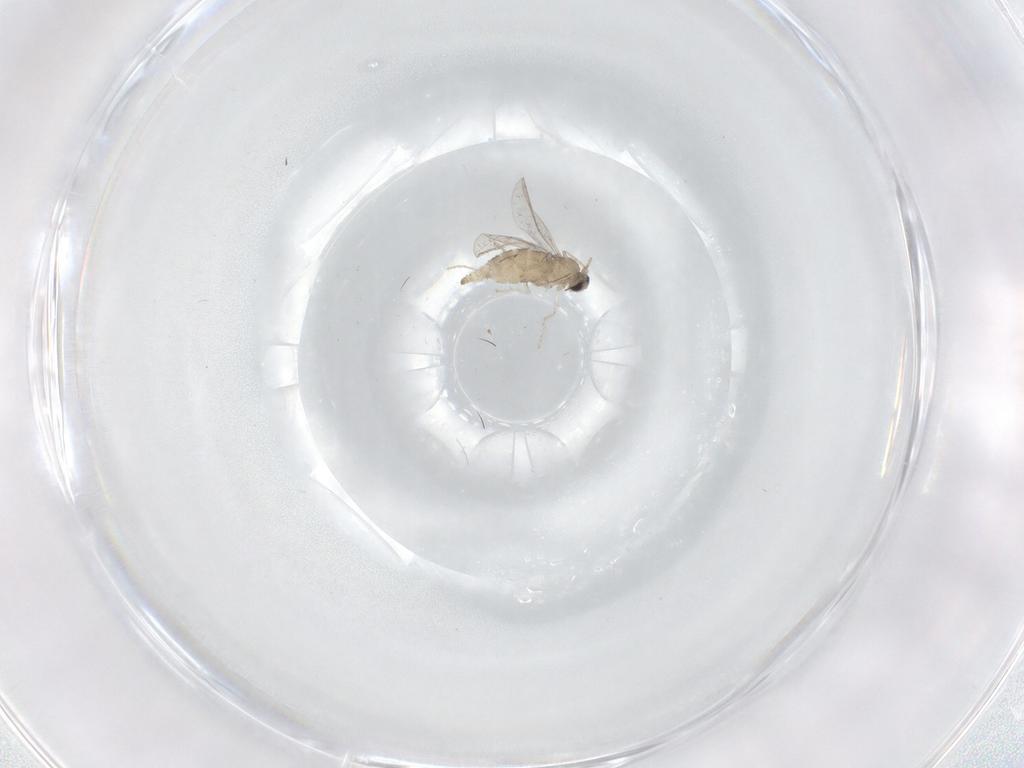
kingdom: Animalia
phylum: Arthropoda
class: Insecta
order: Diptera
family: Cecidomyiidae
